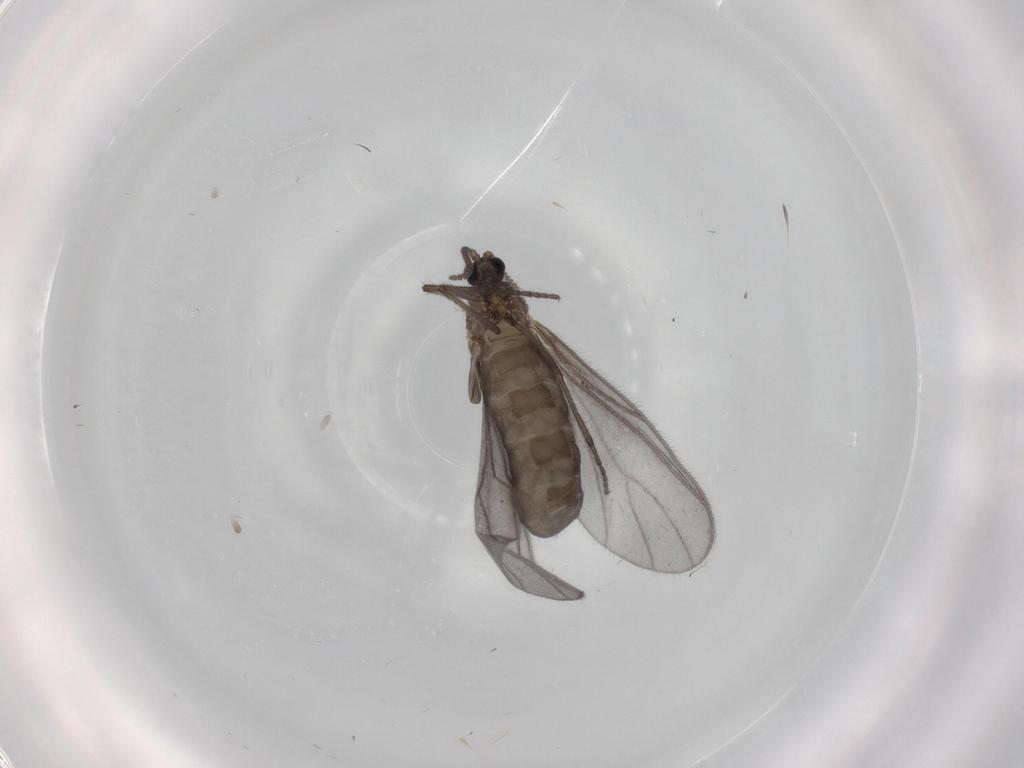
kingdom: Animalia
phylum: Arthropoda
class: Insecta
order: Diptera
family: Sciaridae
